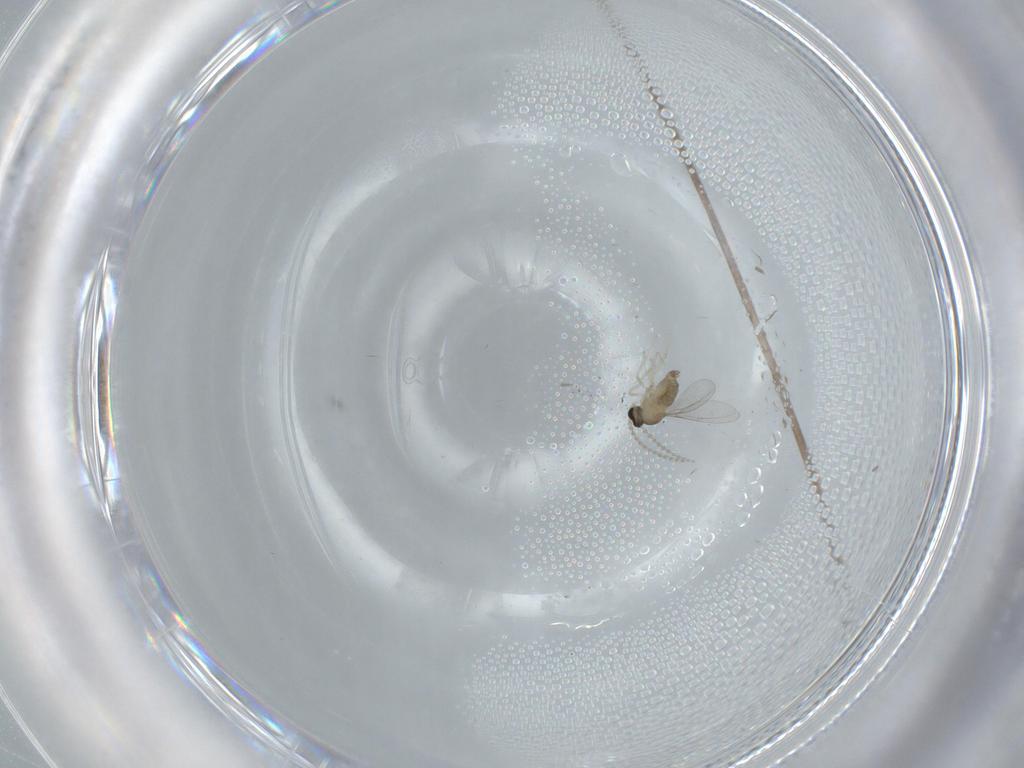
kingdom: Animalia
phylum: Arthropoda
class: Insecta
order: Diptera
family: Cecidomyiidae
